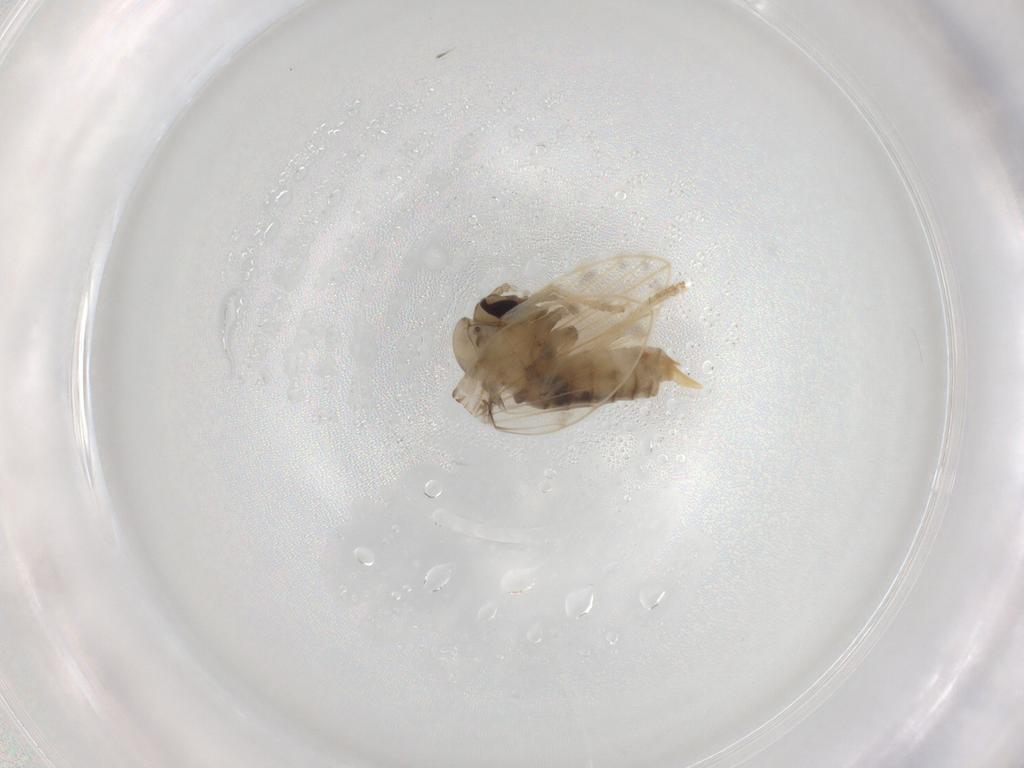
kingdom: Animalia
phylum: Arthropoda
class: Insecta
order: Diptera
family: Psychodidae
